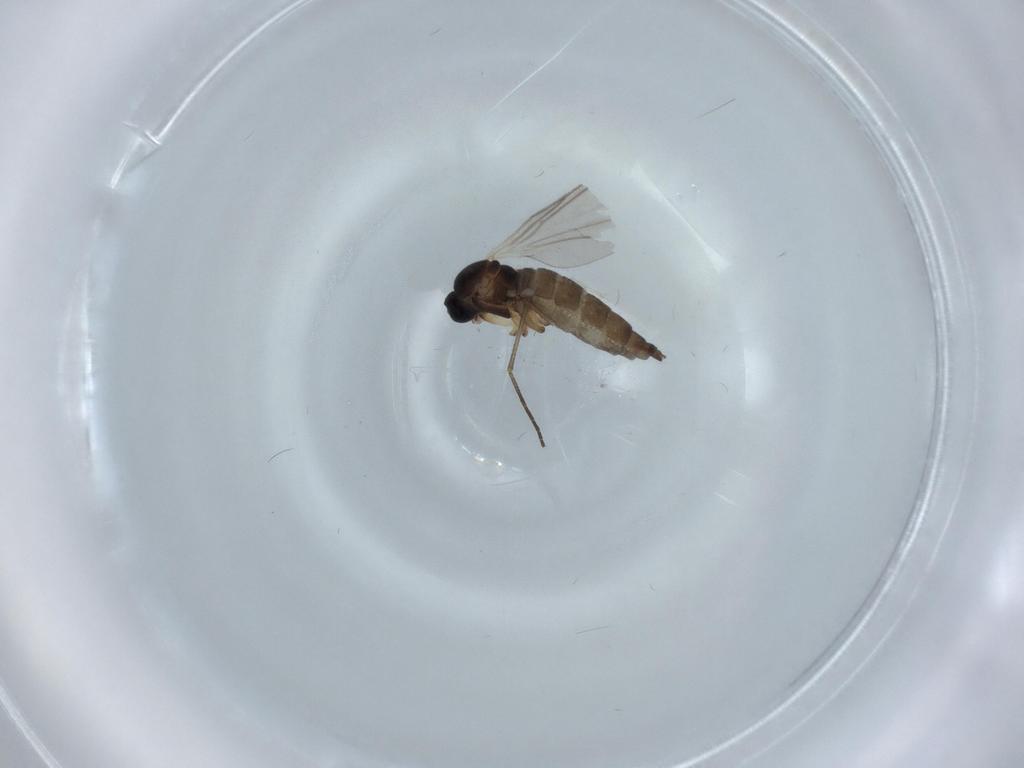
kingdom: Animalia
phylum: Arthropoda
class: Insecta
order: Diptera
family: Sciaridae
